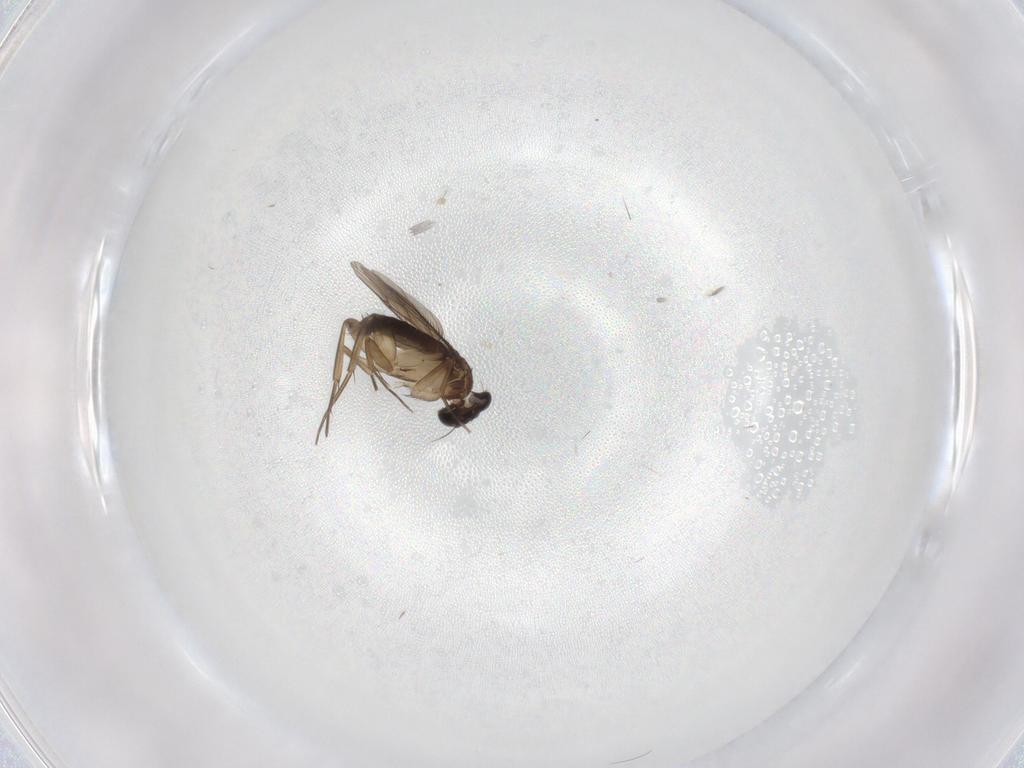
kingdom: Animalia
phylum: Arthropoda
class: Insecta
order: Diptera
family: Phoridae
